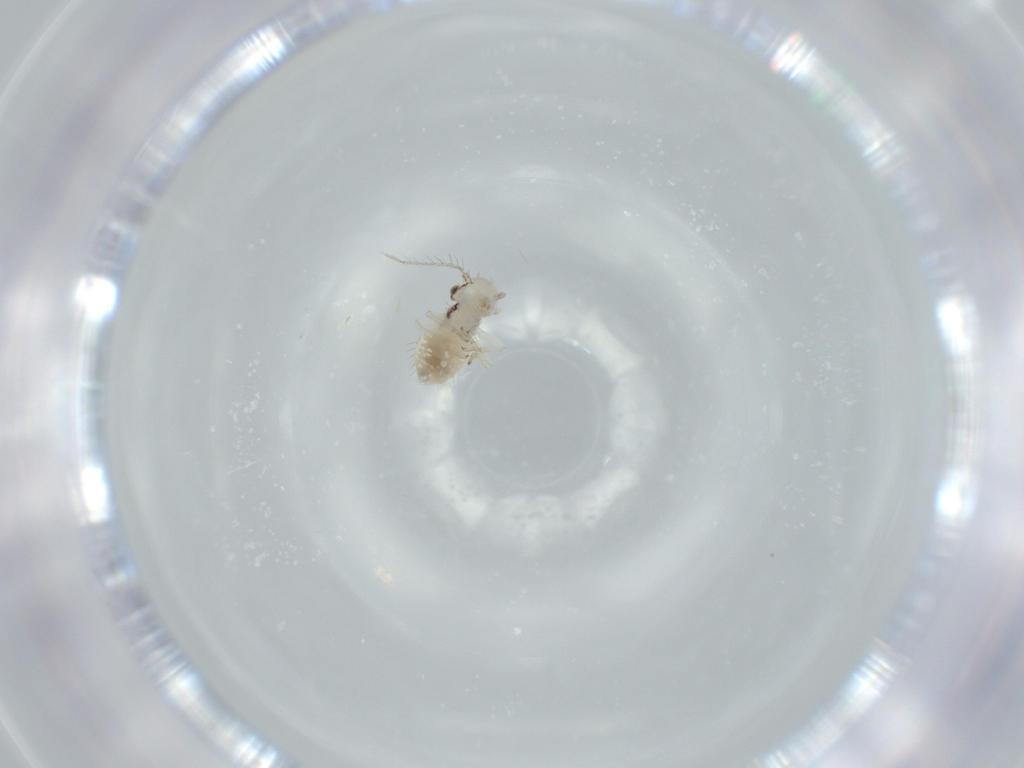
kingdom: Animalia
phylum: Arthropoda
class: Insecta
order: Psocodea
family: Pseudocaeciliidae
